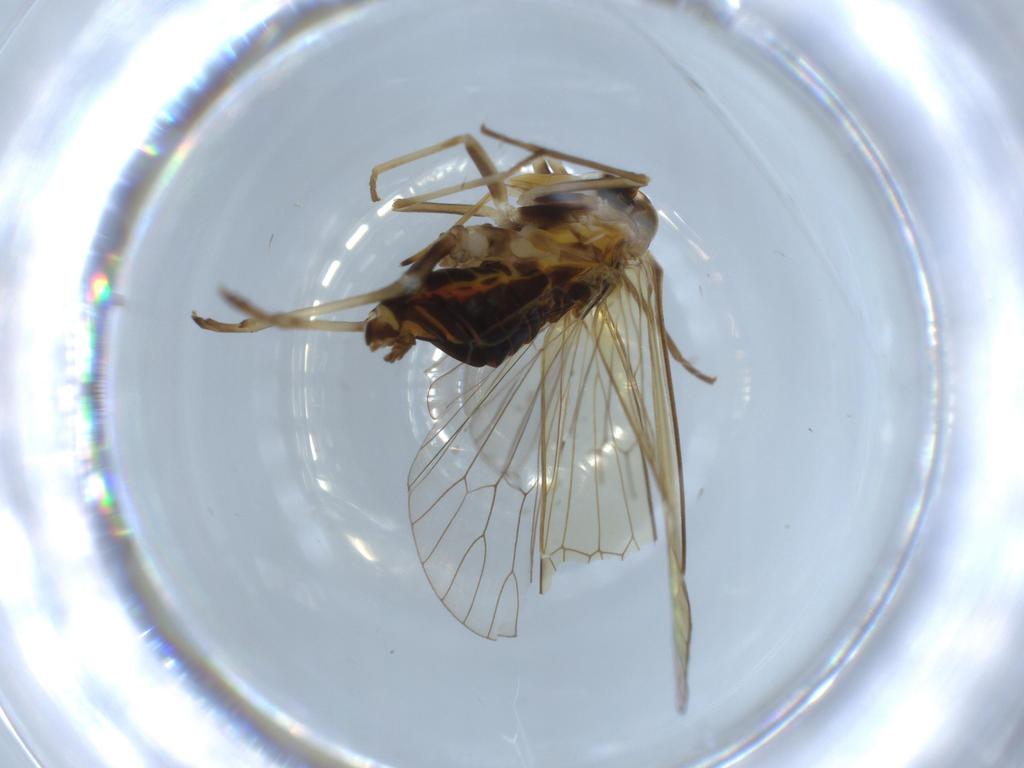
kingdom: Animalia
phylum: Arthropoda
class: Insecta
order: Hemiptera
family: Kinnaridae
